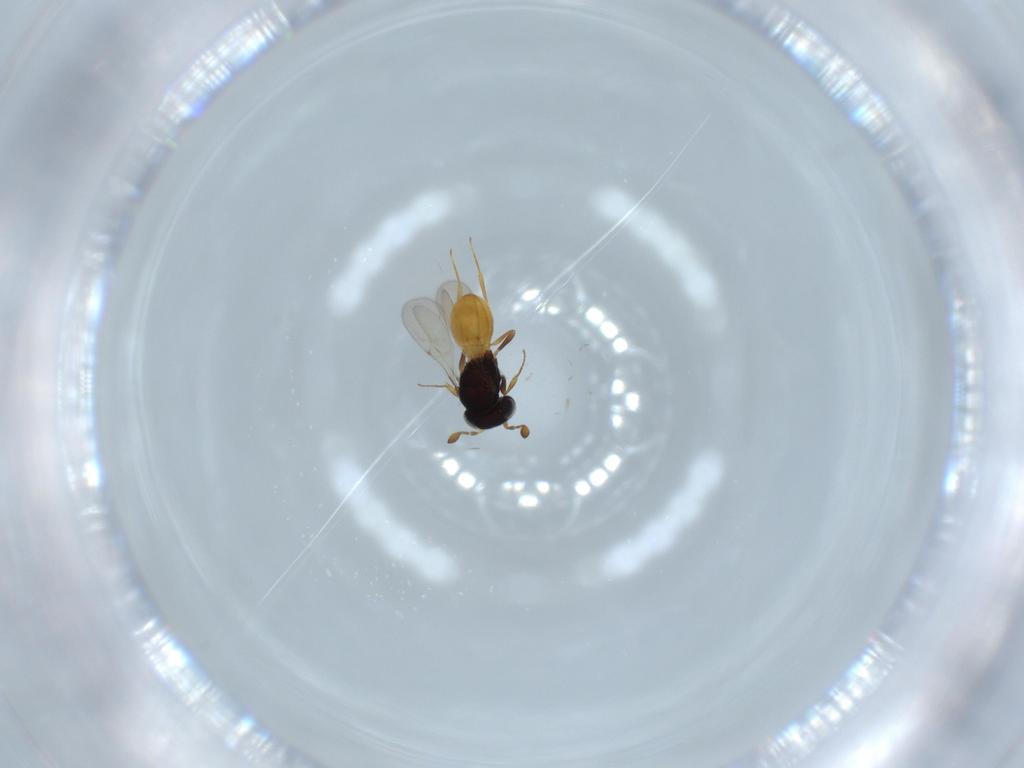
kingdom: Animalia
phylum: Arthropoda
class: Insecta
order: Hymenoptera
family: Scelionidae
